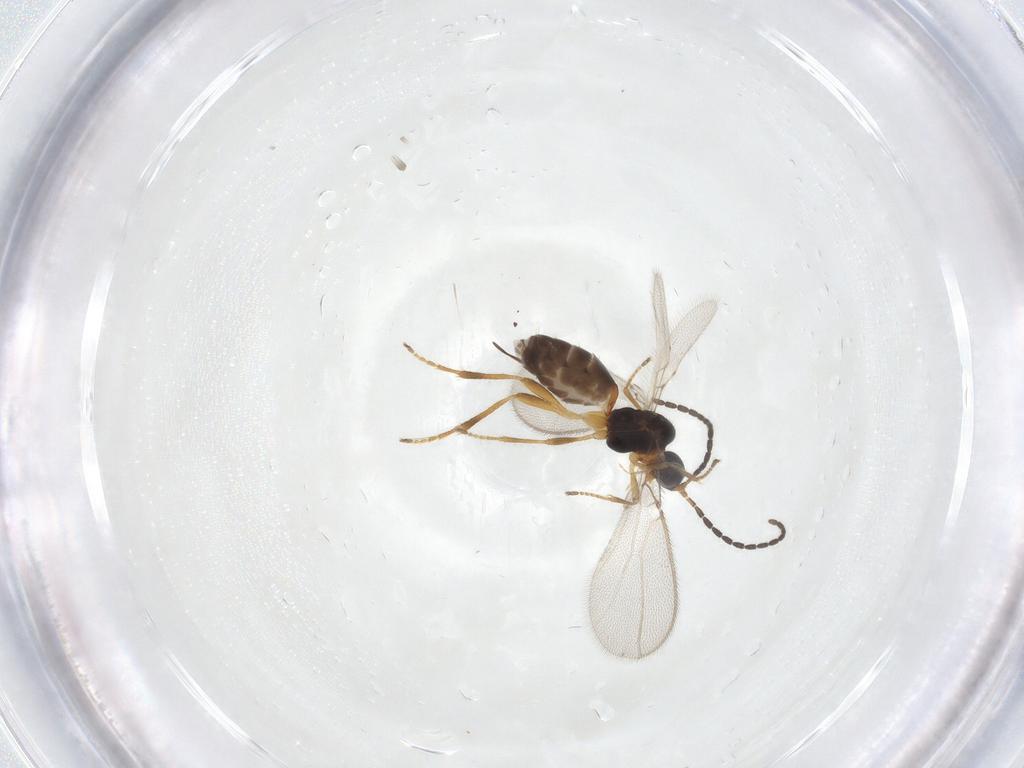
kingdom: Animalia
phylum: Arthropoda
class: Insecta
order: Hymenoptera
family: Braconidae
